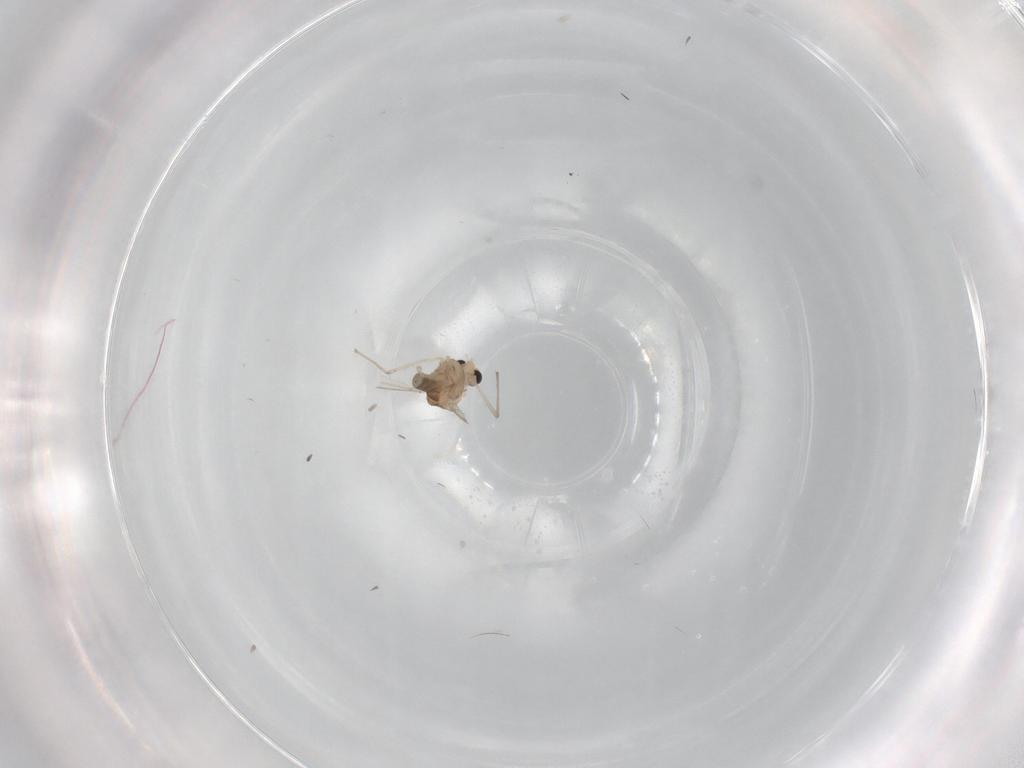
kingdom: Animalia
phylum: Arthropoda
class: Insecta
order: Diptera
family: Chironomidae
